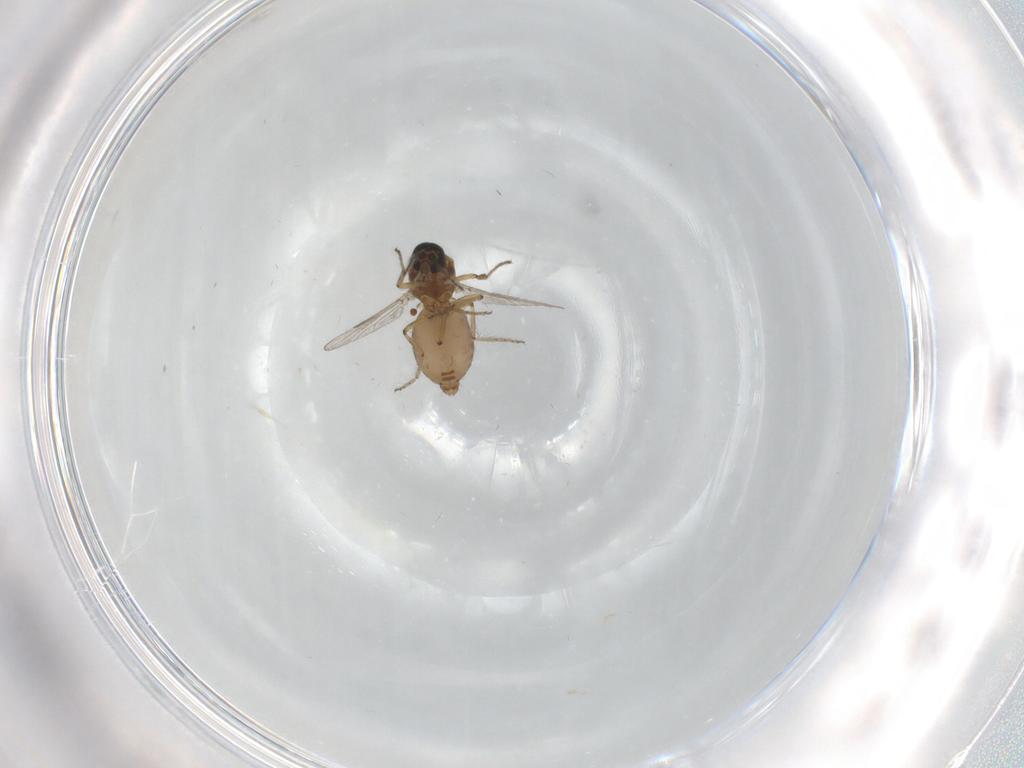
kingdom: Animalia
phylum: Arthropoda
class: Insecta
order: Diptera
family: Ceratopogonidae
